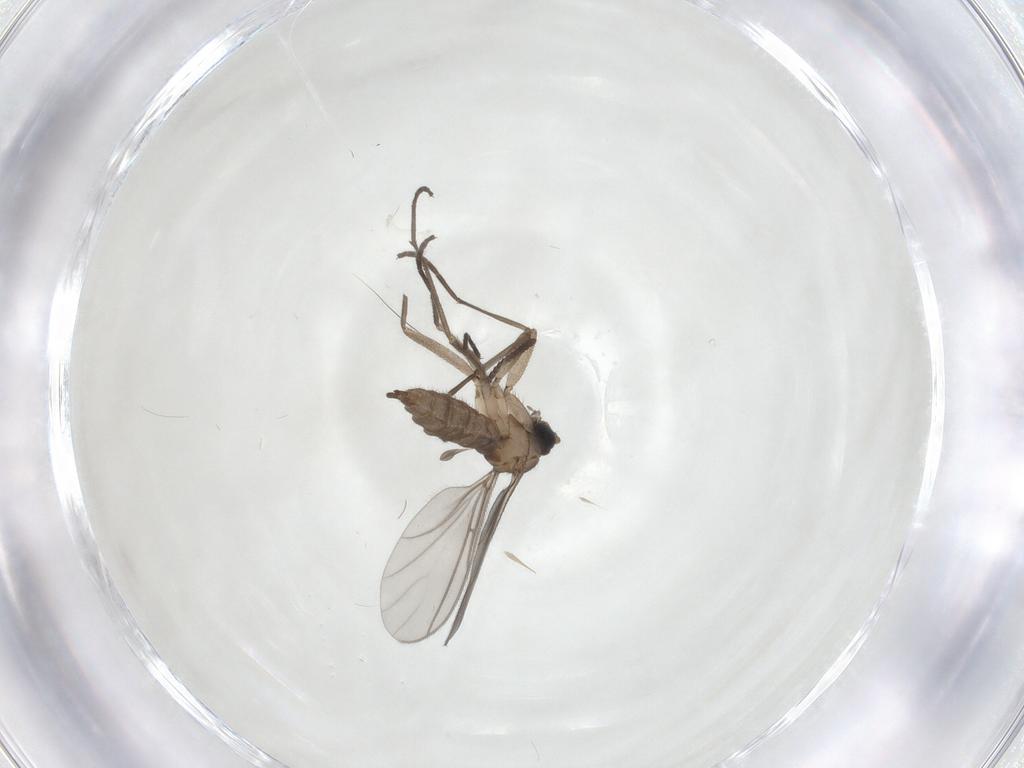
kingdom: Animalia
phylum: Arthropoda
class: Insecta
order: Diptera
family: Sciaridae
